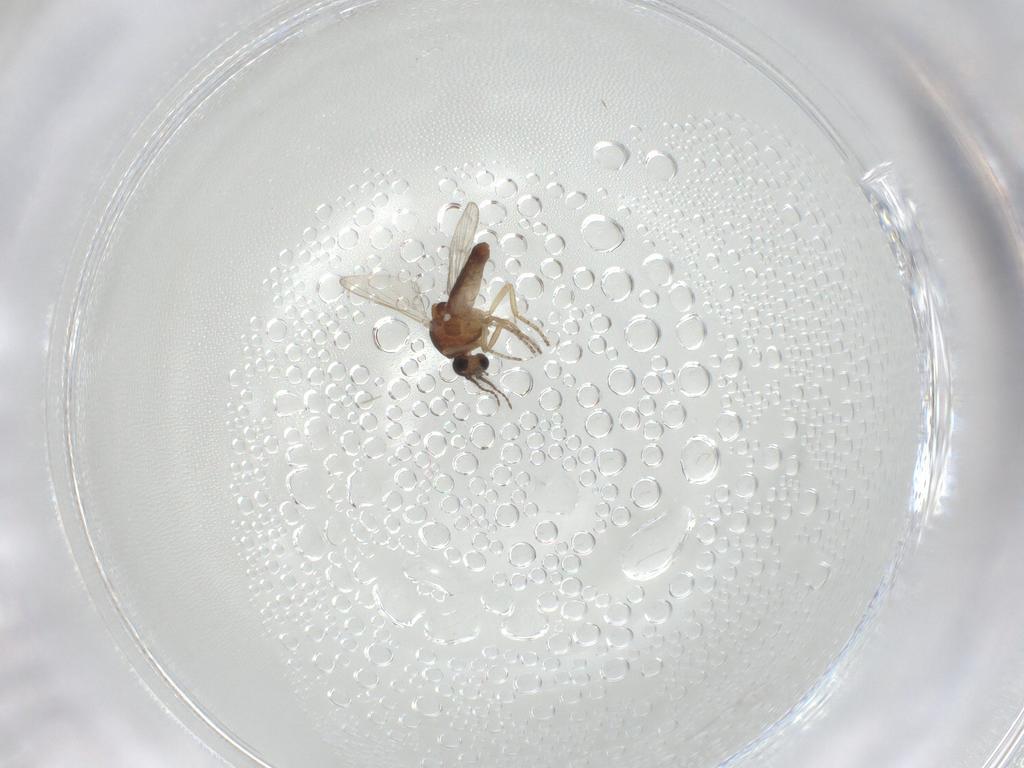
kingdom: Animalia
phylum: Arthropoda
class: Insecta
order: Diptera
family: Ceratopogonidae
